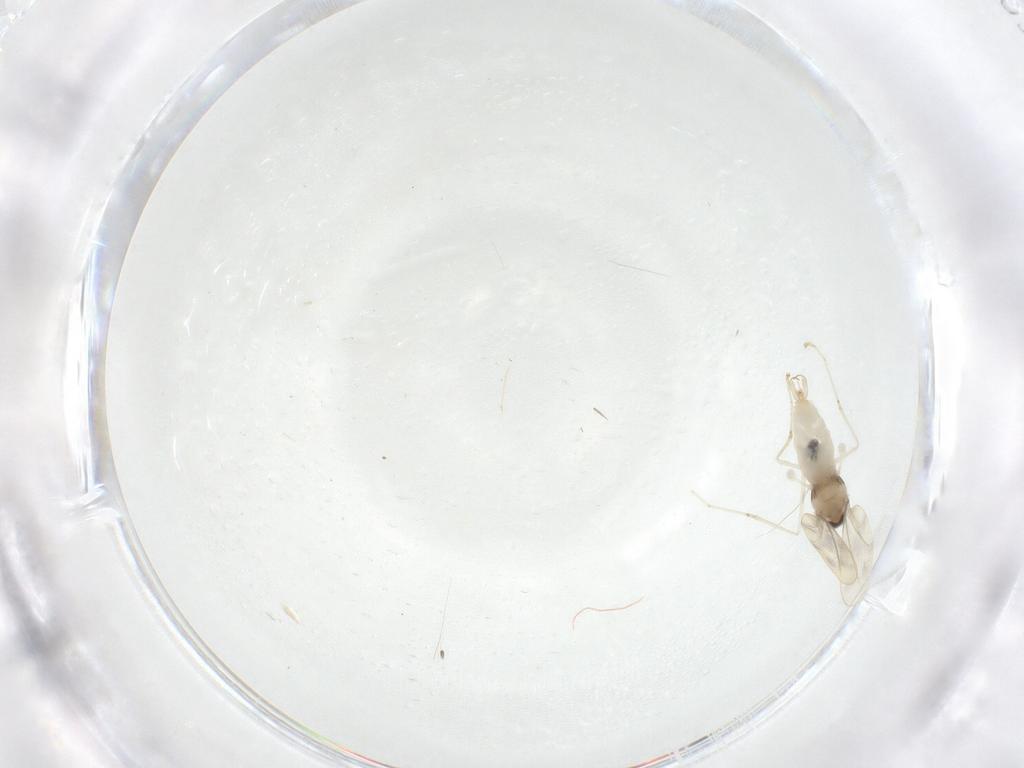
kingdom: Animalia
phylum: Arthropoda
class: Insecta
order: Diptera
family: Cecidomyiidae
